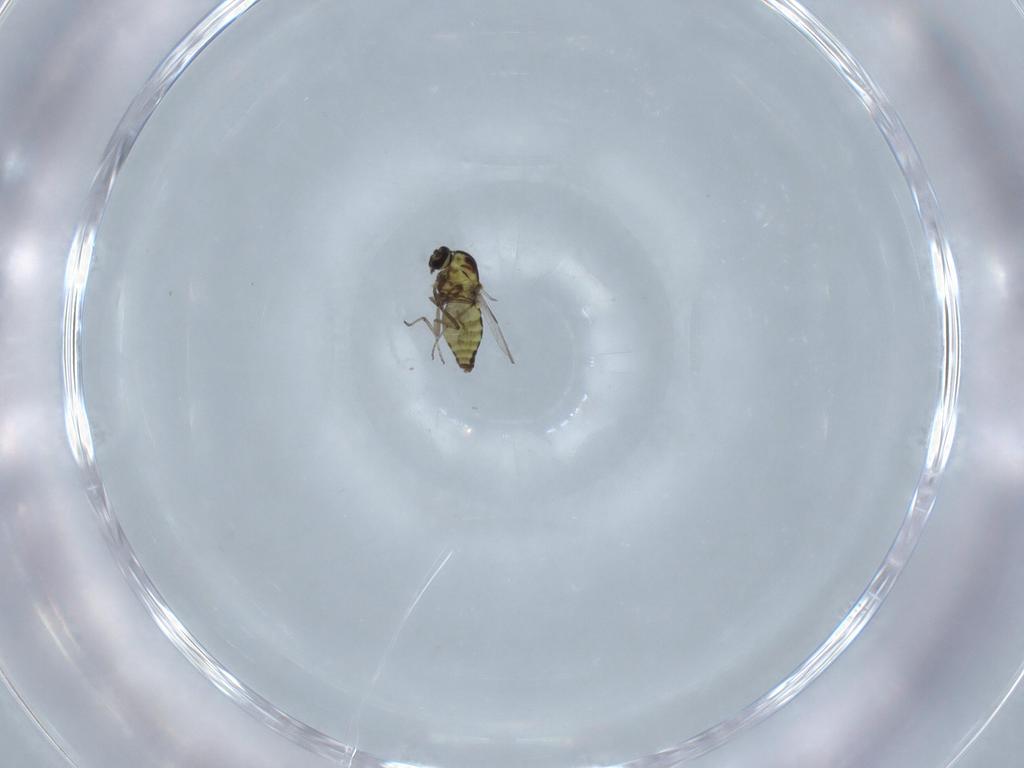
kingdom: Animalia
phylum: Arthropoda
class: Insecta
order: Diptera
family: Ceratopogonidae
